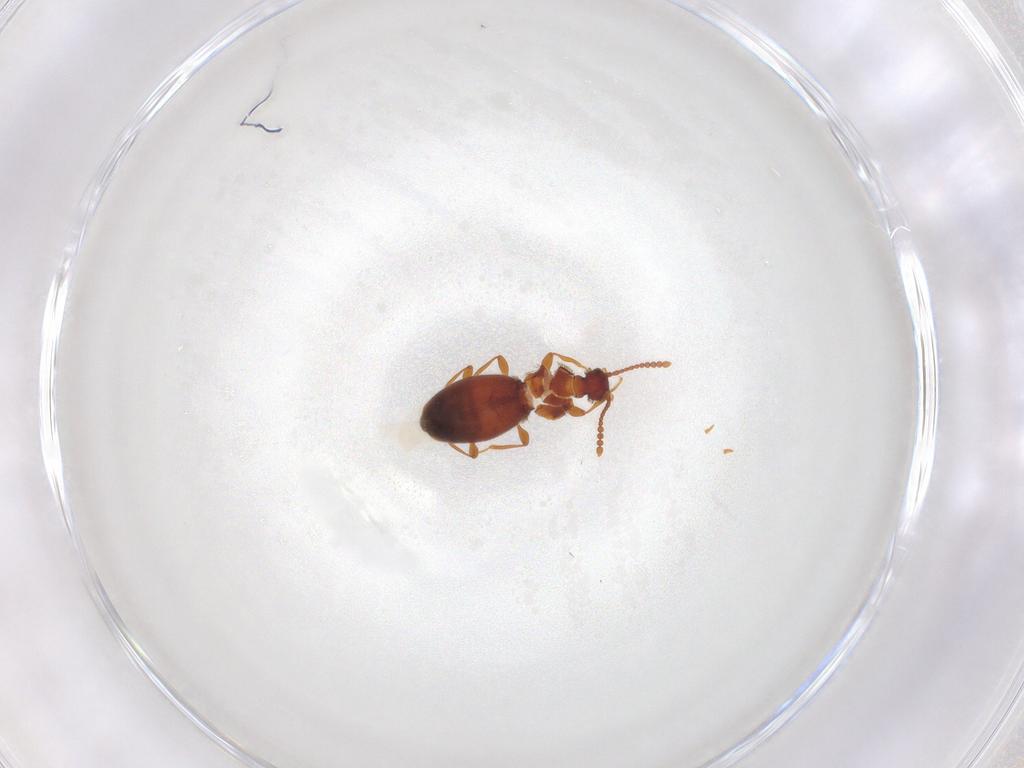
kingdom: Animalia
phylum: Arthropoda
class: Insecta
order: Coleoptera
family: Staphylinidae
